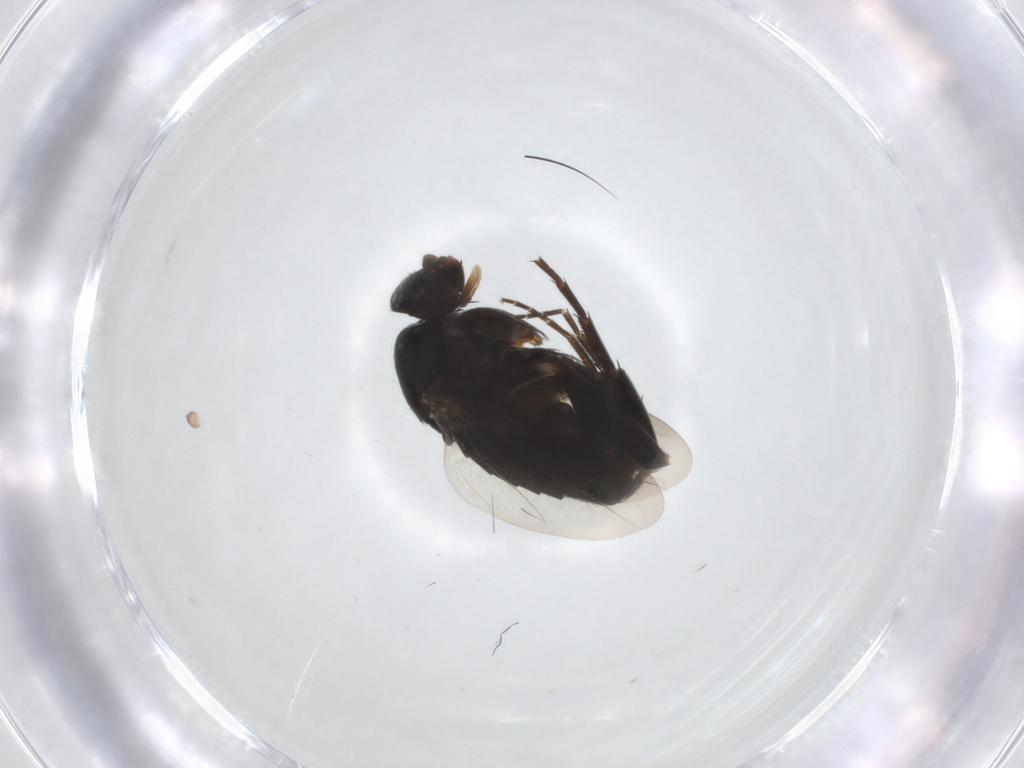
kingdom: Animalia
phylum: Arthropoda
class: Insecta
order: Diptera
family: Phoridae
